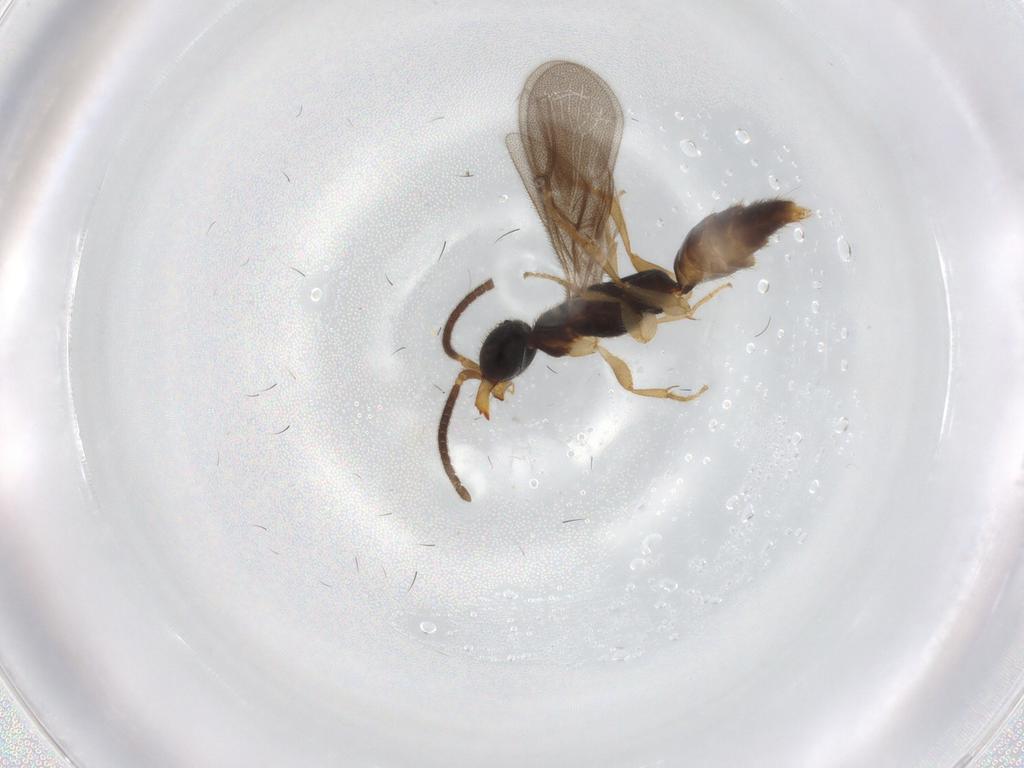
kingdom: Animalia
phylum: Arthropoda
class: Insecta
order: Hymenoptera
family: Bethylidae
